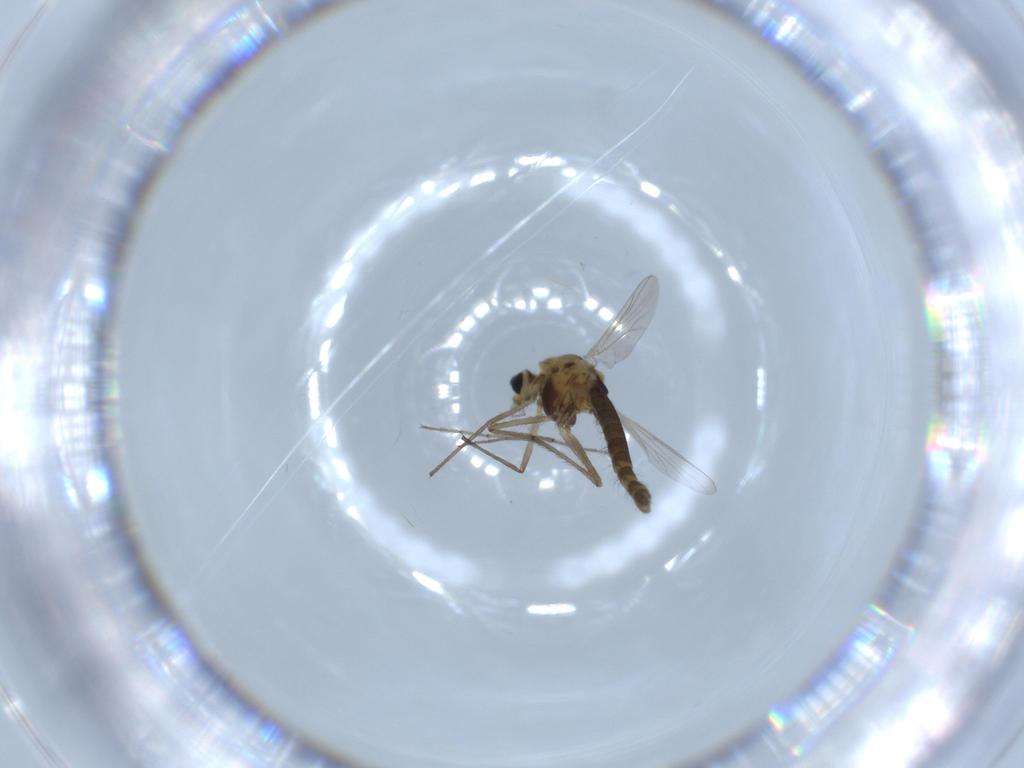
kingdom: Animalia
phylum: Arthropoda
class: Insecta
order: Diptera
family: Chironomidae
